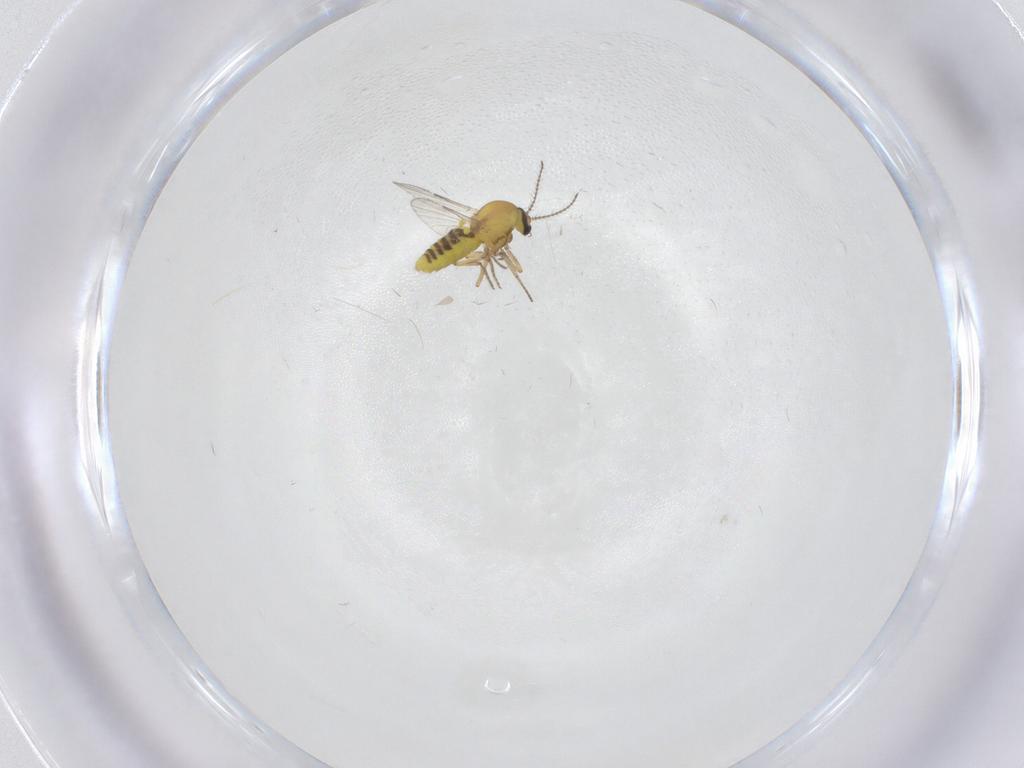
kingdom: Animalia
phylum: Arthropoda
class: Insecta
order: Diptera
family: Ceratopogonidae
